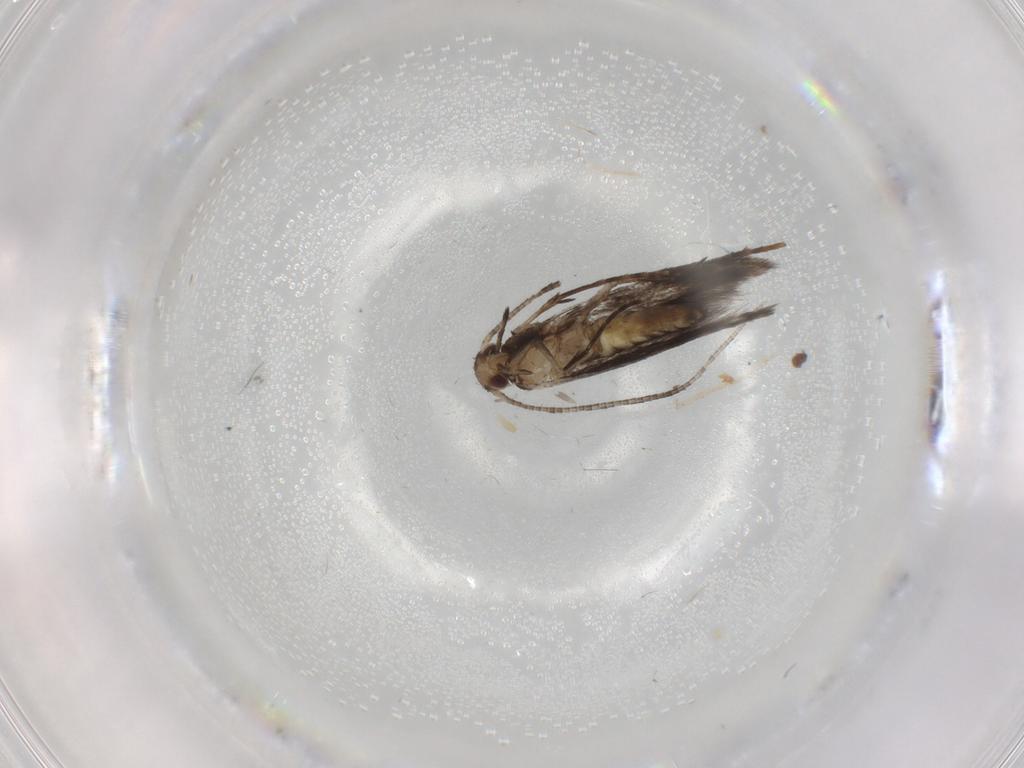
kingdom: Animalia
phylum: Arthropoda
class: Insecta
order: Lepidoptera
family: Gracillariidae
